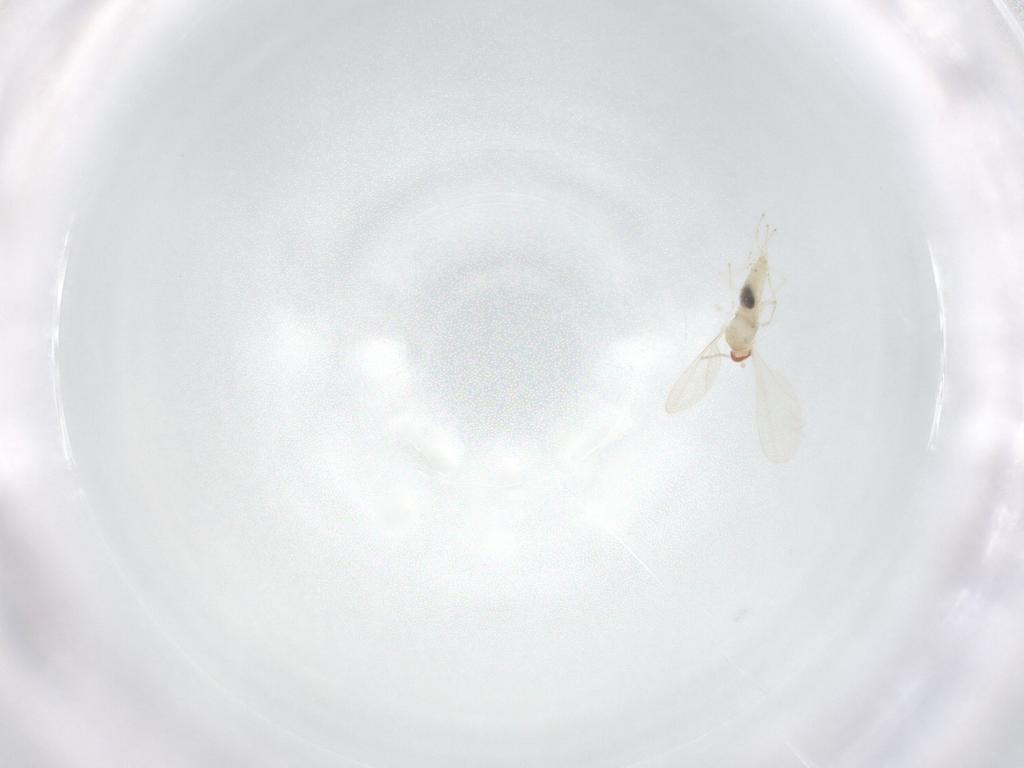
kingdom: Animalia
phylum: Arthropoda
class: Insecta
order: Diptera
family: Cecidomyiidae
